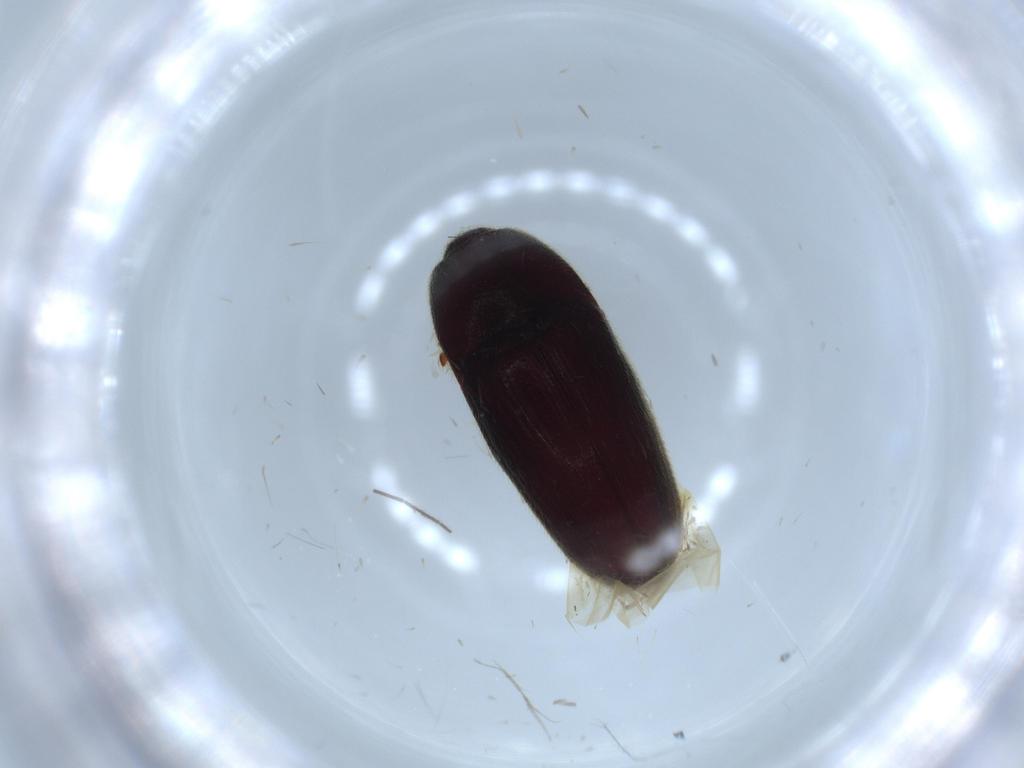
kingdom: Animalia
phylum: Arthropoda
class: Insecta
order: Coleoptera
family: Throscidae
